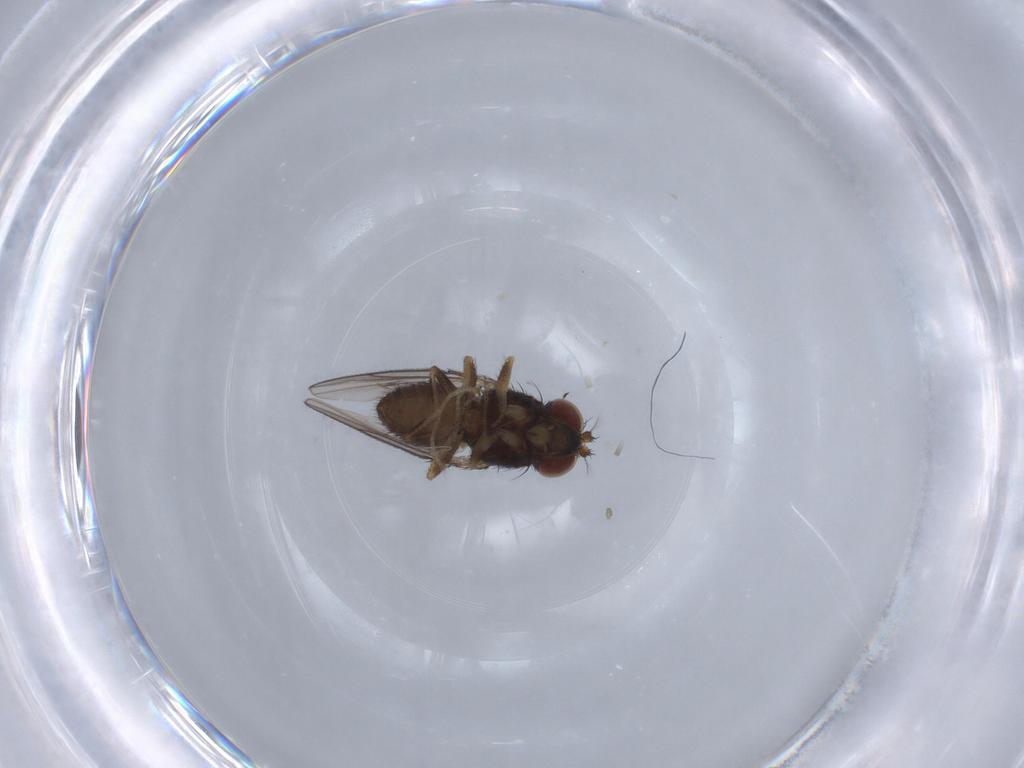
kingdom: Animalia
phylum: Arthropoda
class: Insecta
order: Diptera
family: Ephydridae
